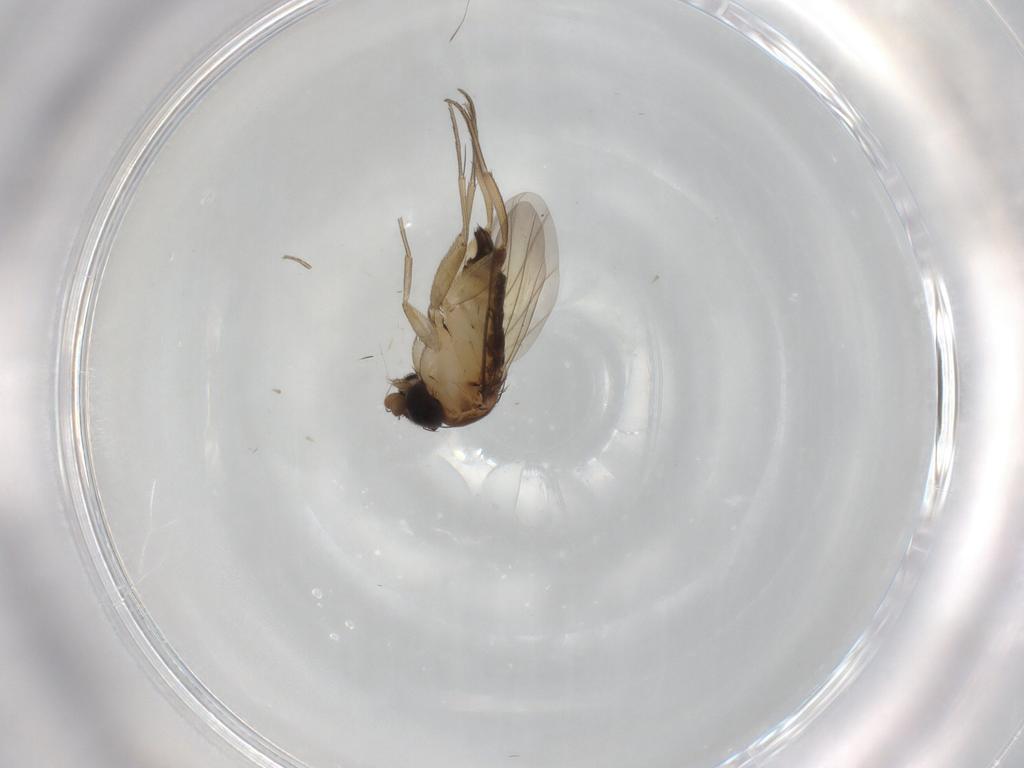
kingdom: Animalia
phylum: Arthropoda
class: Insecta
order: Diptera
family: Phoridae
